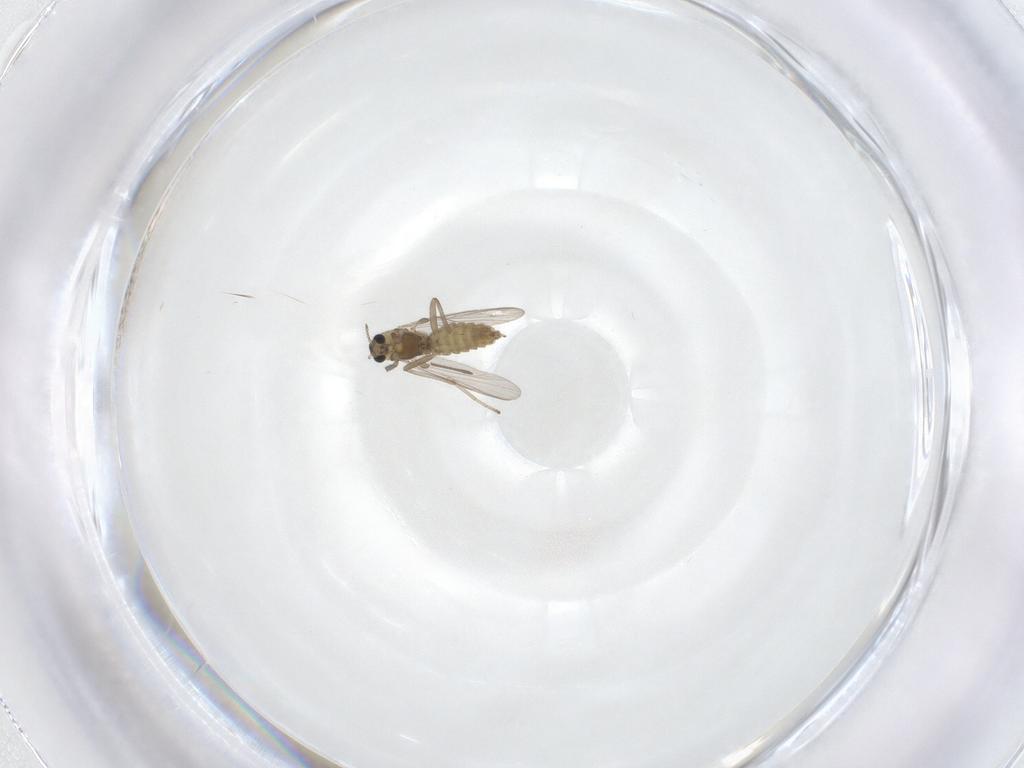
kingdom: Animalia
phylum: Arthropoda
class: Insecta
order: Diptera
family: Chironomidae
